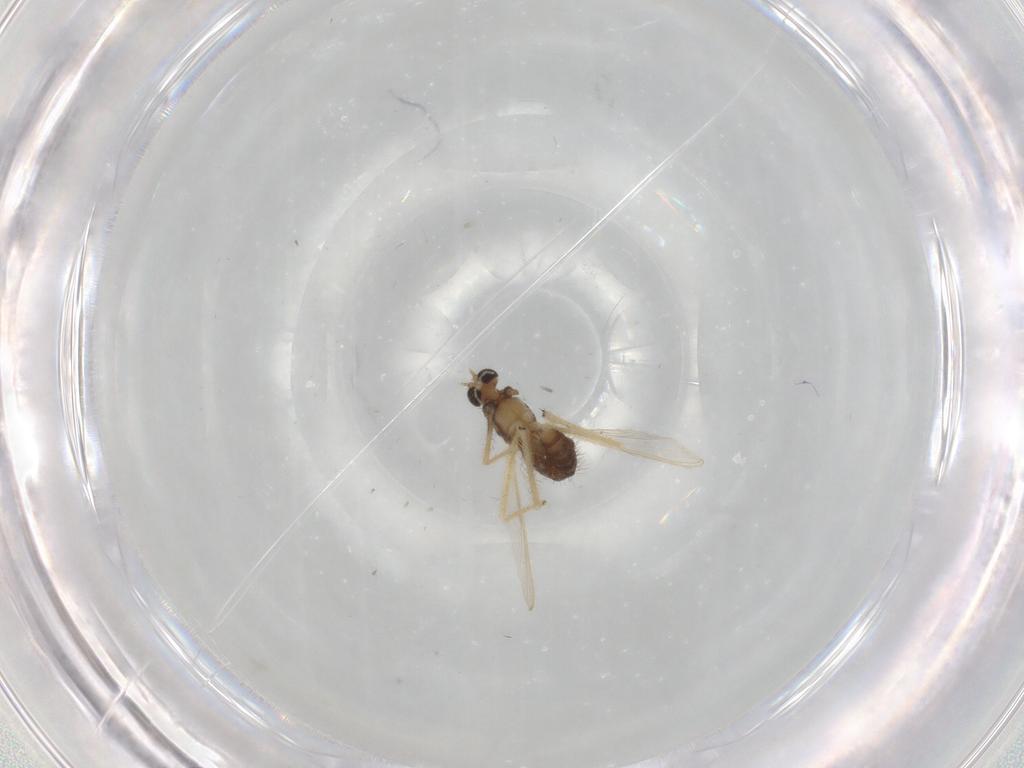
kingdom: Animalia
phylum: Arthropoda
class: Insecta
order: Diptera
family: Chironomidae
